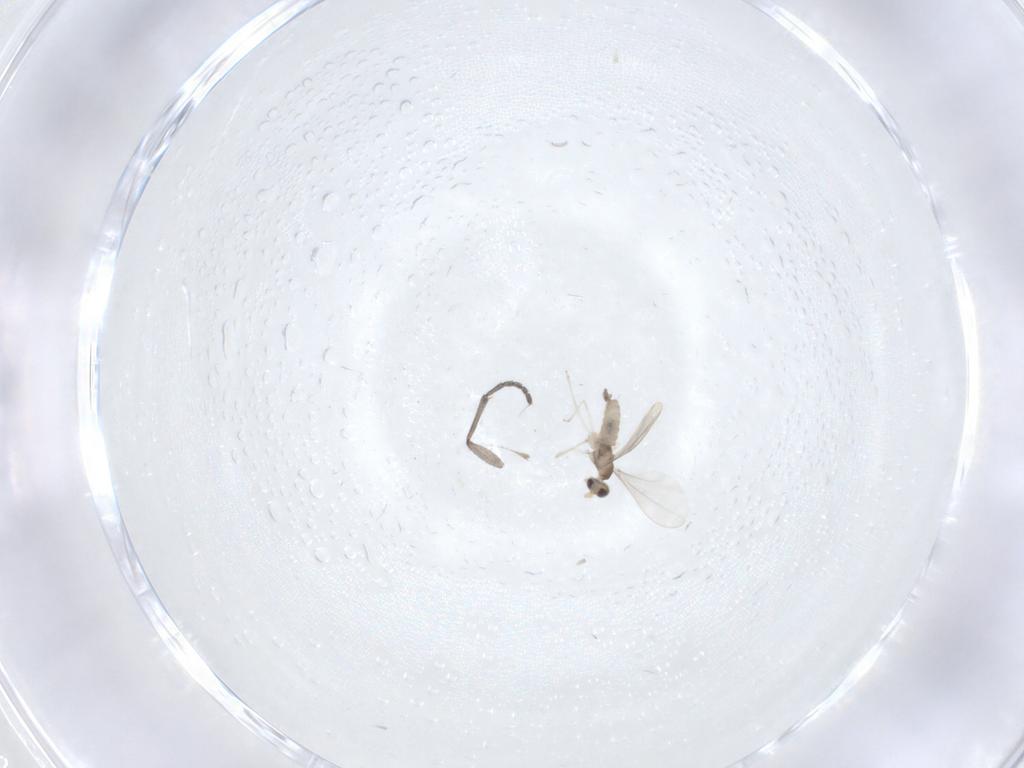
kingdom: Animalia
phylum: Arthropoda
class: Insecta
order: Diptera
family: Cecidomyiidae
